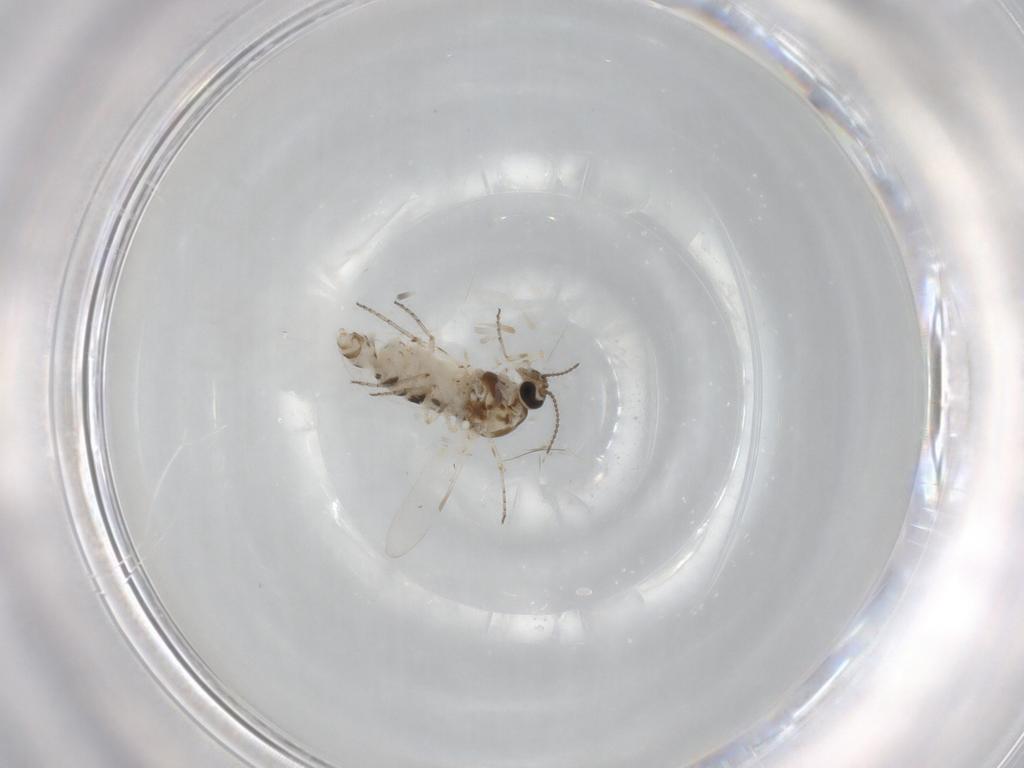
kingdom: Animalia
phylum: Arthropoda
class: Insecta
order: Diptera
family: Ceratopogonidae
